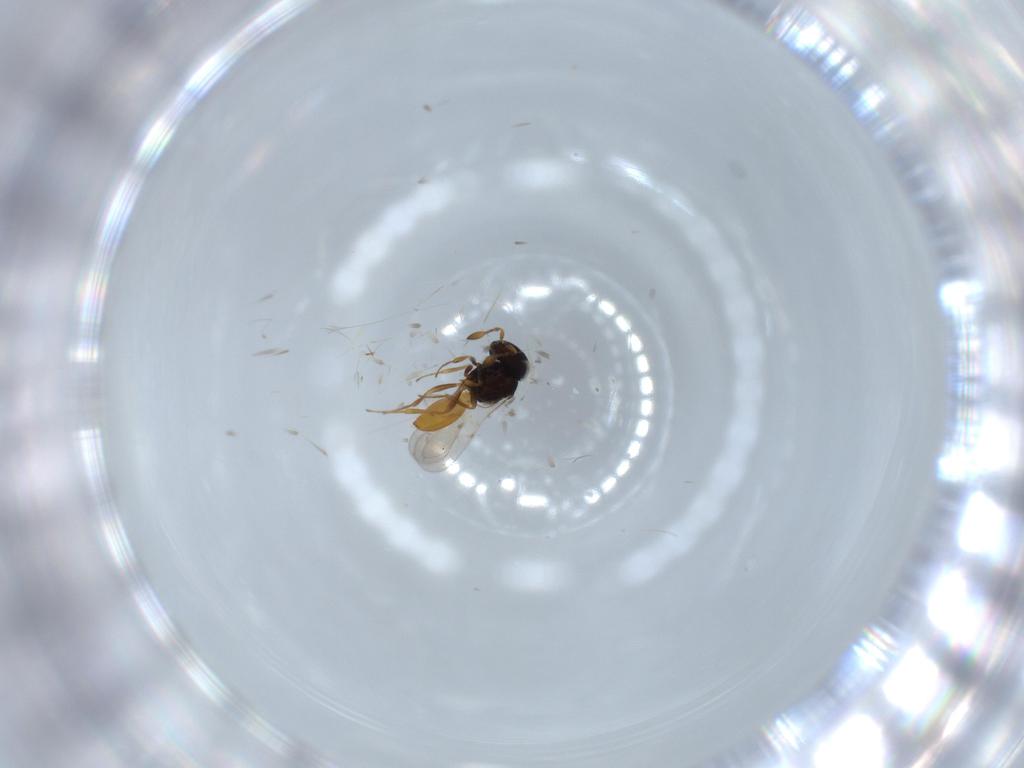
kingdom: Animalia
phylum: Arthropoda
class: Insecta
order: Hymenoptera
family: Scelionidae
